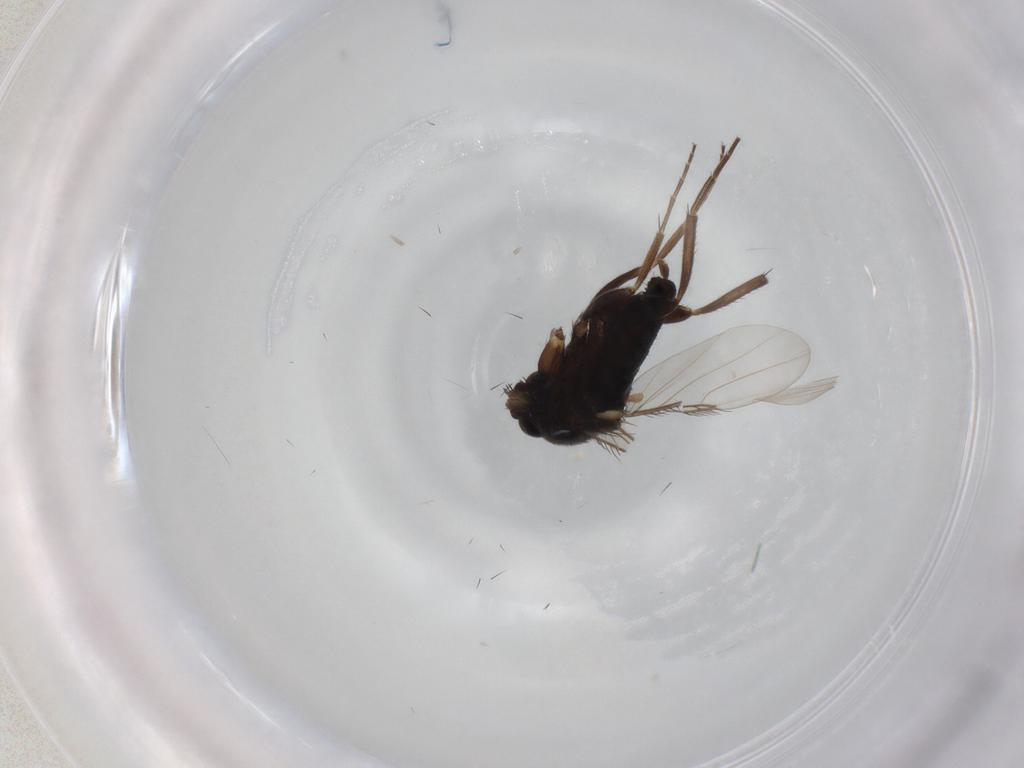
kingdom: Animalia
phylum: Arthropoda
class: Insecta
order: Diptera
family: Phoridae
